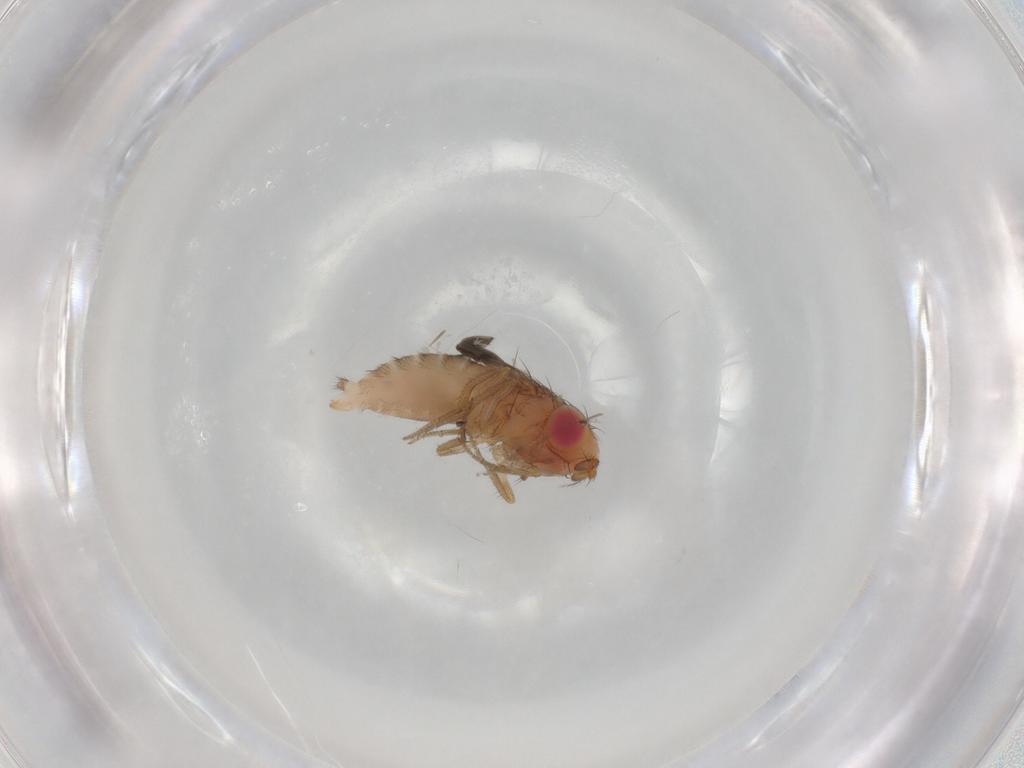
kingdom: Animalia
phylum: Arthropoda
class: Insecta
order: Diptera
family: Drosophilidae
